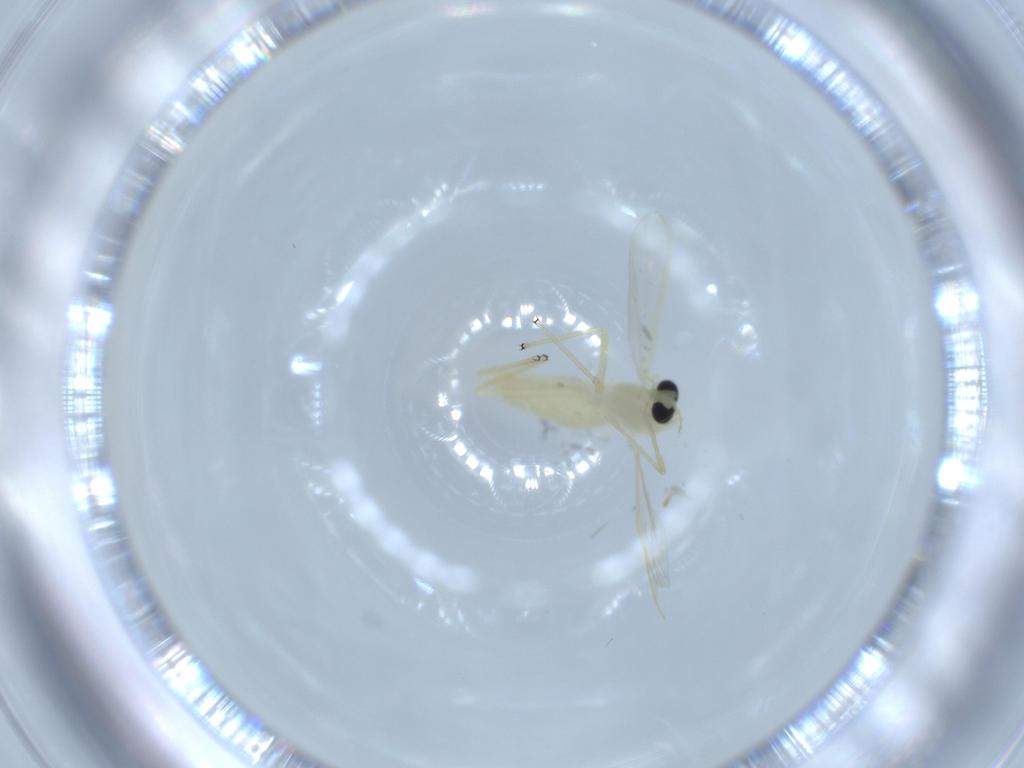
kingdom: Animalia
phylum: Arthropoda
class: Insecta
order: Diptera
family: Chironomidae
